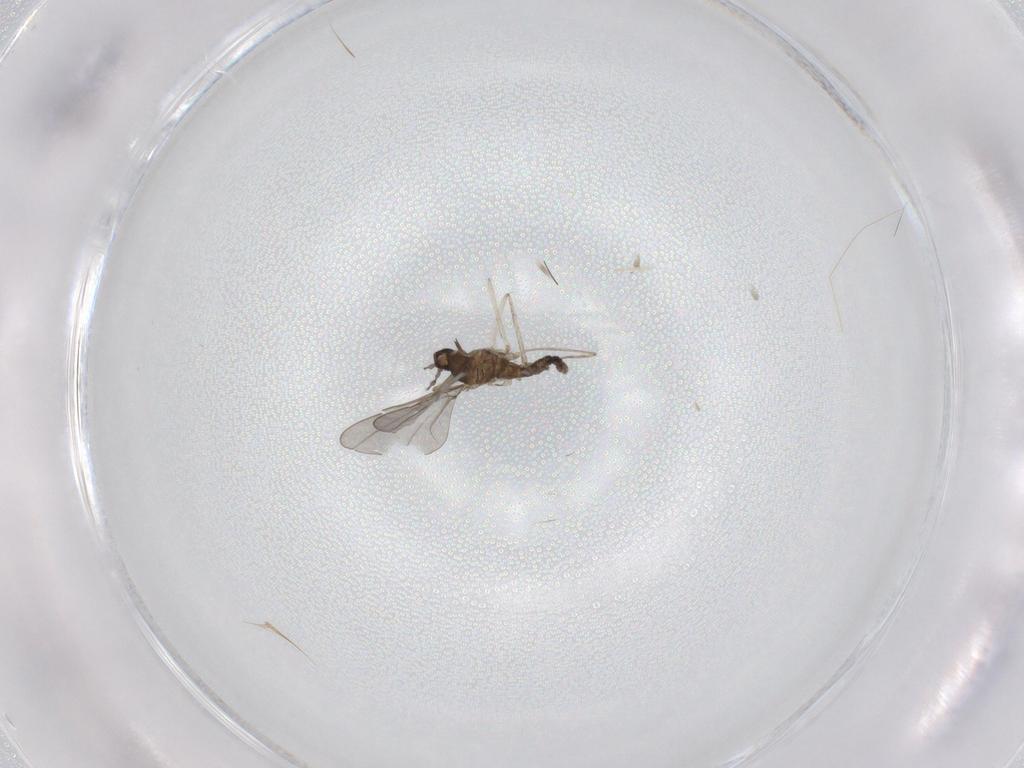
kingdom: Animalia
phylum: Arthropoda
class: Insecta
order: Diptera
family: Cecidomyiidae
